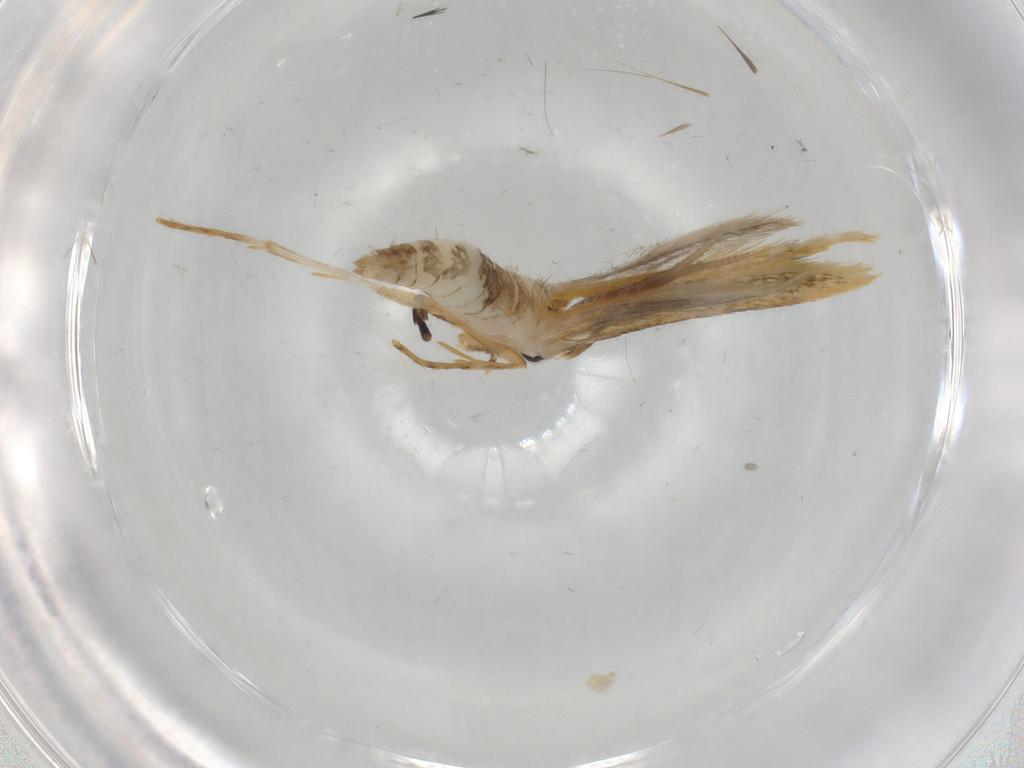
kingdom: Animalia
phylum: Arthropoda
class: Insecta
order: Lepidoptera
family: Tineidae
